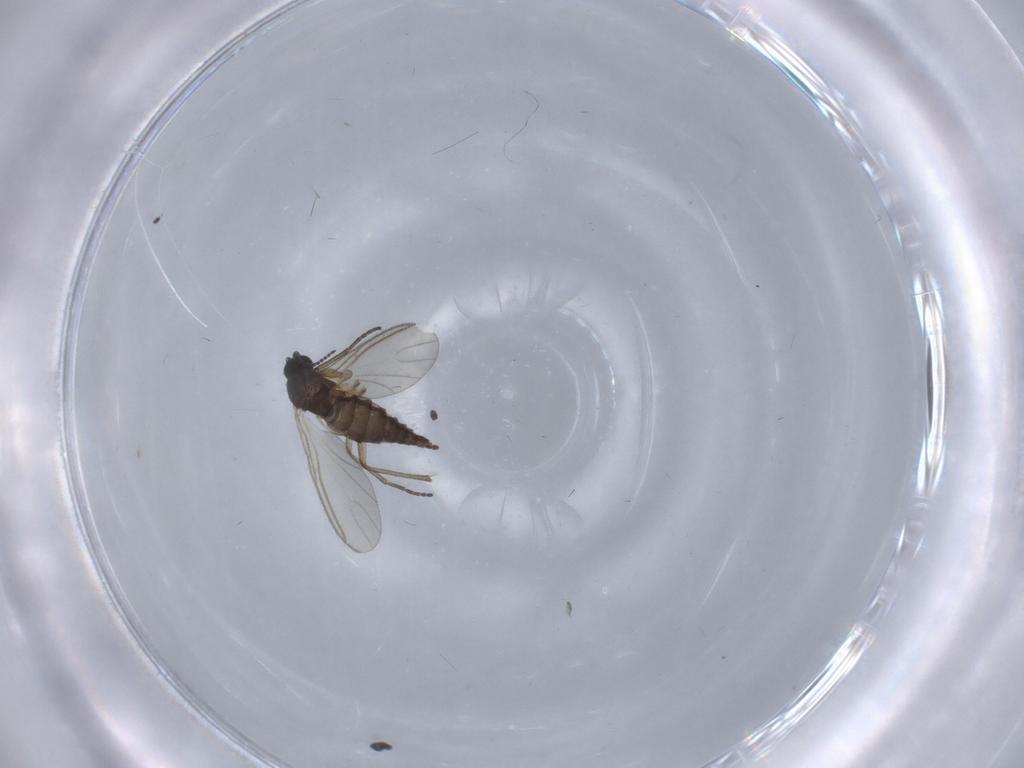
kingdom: Animalia
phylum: Arthropoda
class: Insecta
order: Diptera
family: Sciaridae
